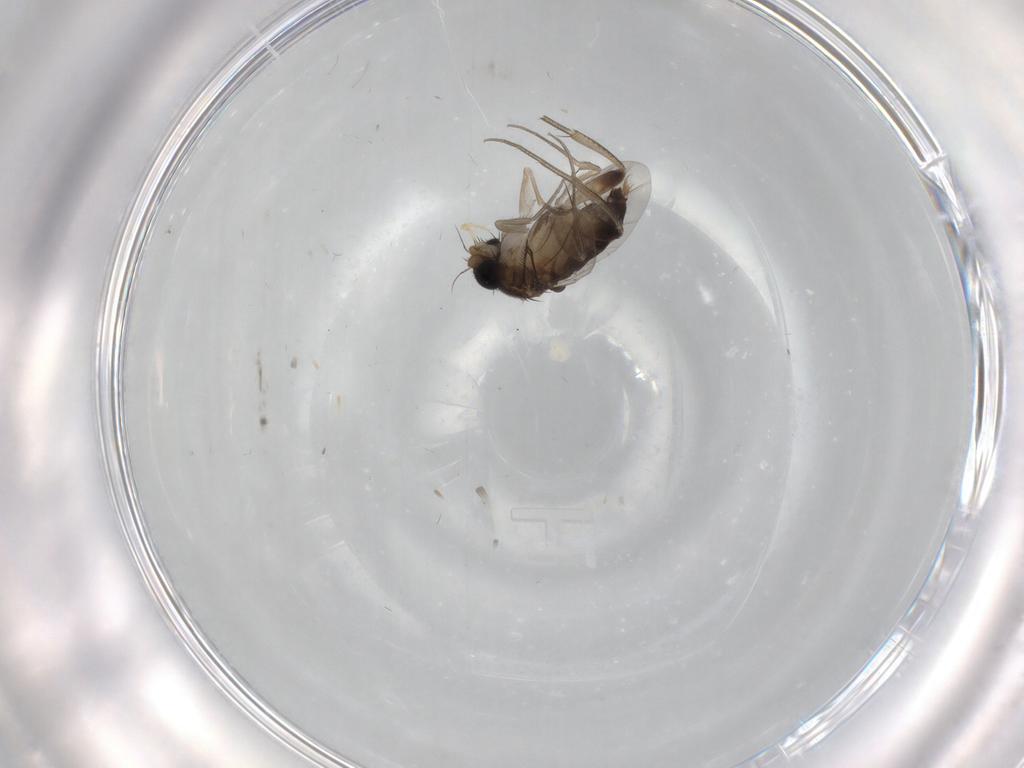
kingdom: Animalia
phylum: Arthropoda
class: Insecta
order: Diptera
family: Phoridae
